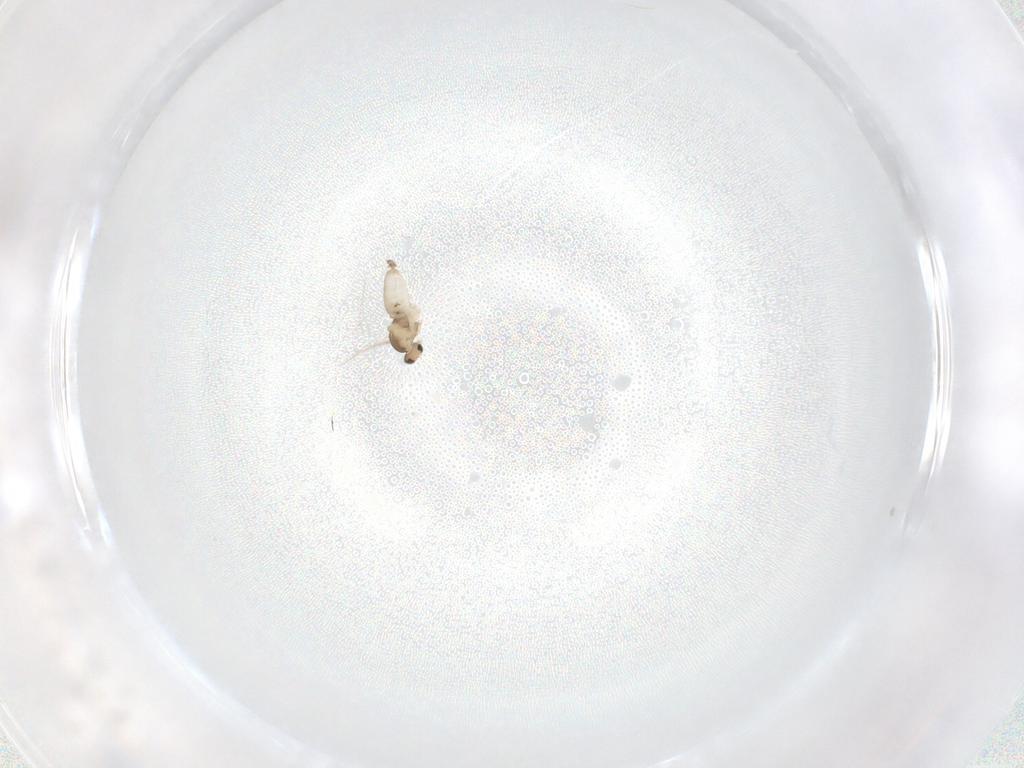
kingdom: Animalia
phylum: Arthropoda
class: Insecta
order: Diptera
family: Cecidomyiidae
